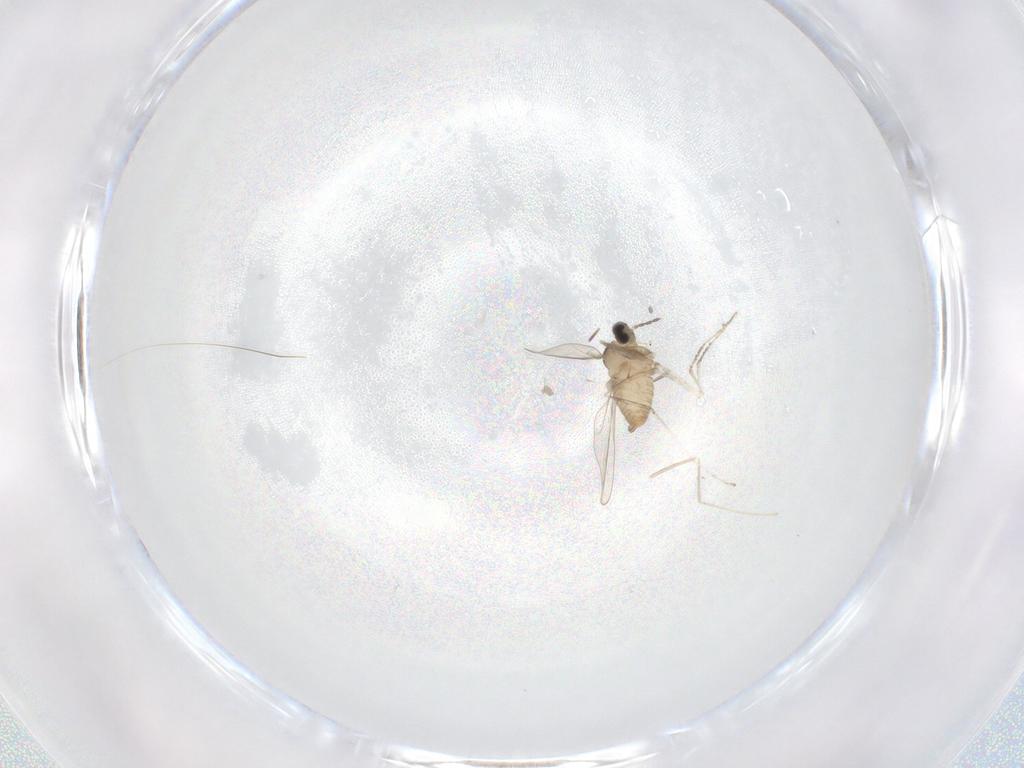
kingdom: Animalia
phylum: Arthropoda
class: Insecta
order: Diptera
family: Cecidomyiidae
